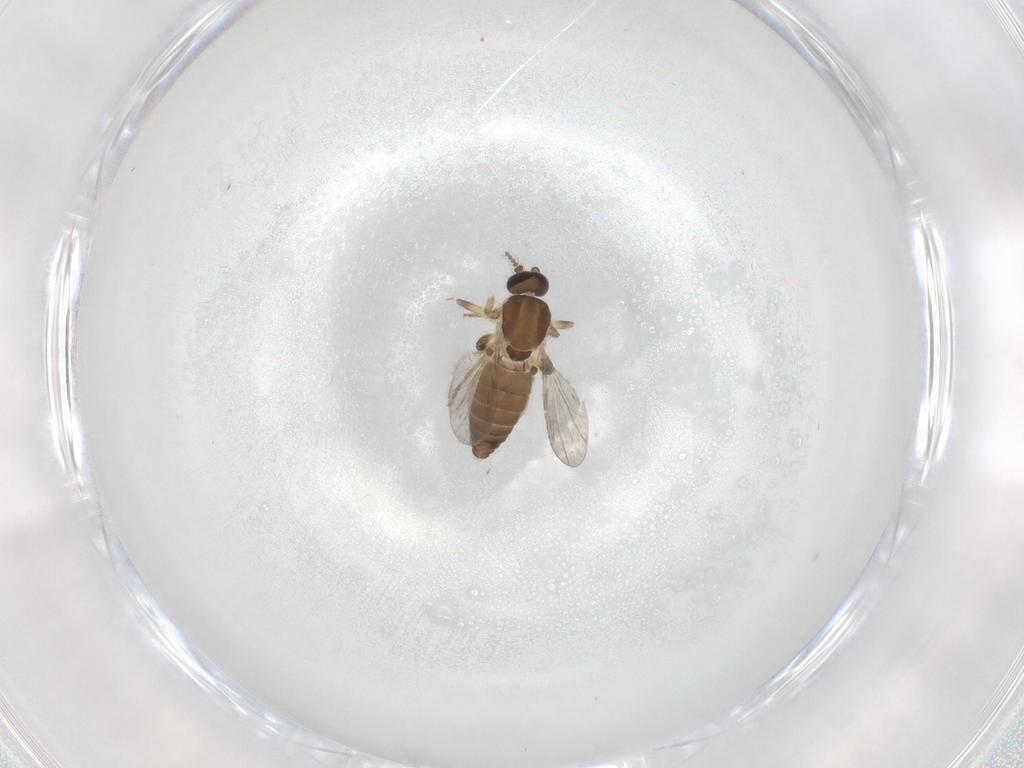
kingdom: Animalia
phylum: Arthropoda
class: Insecta
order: Diptera
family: Ceratopogonidae
